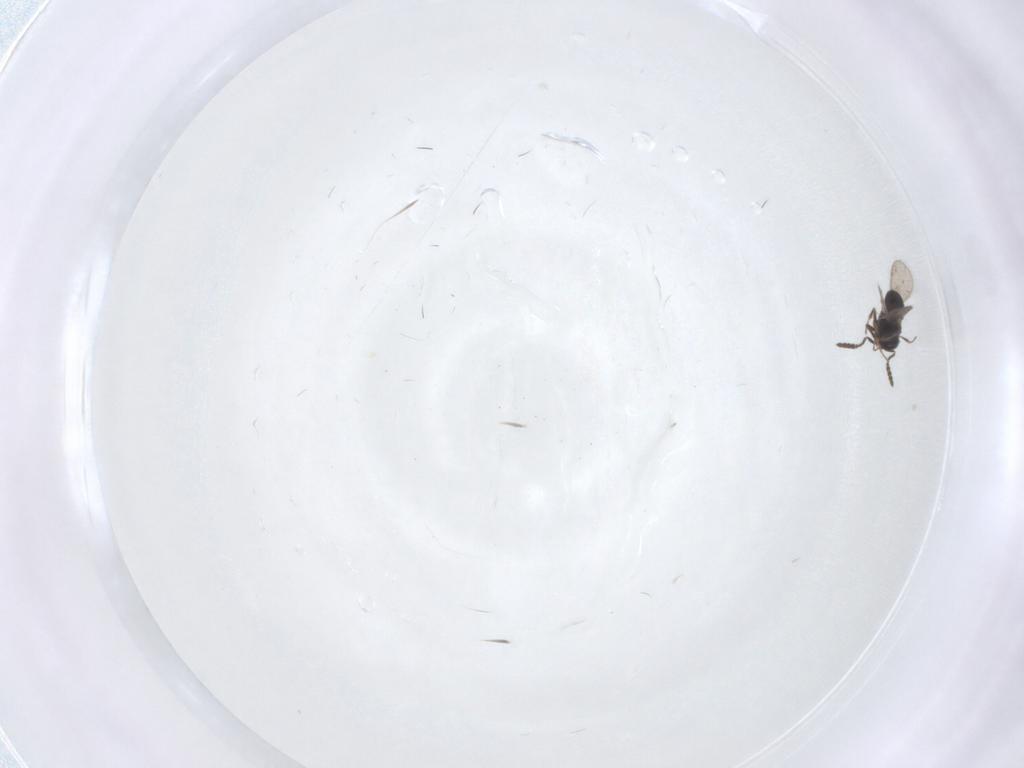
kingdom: Animalia
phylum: Arthropoda
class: Insecta
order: Hymenoptera
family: Scelionidae
